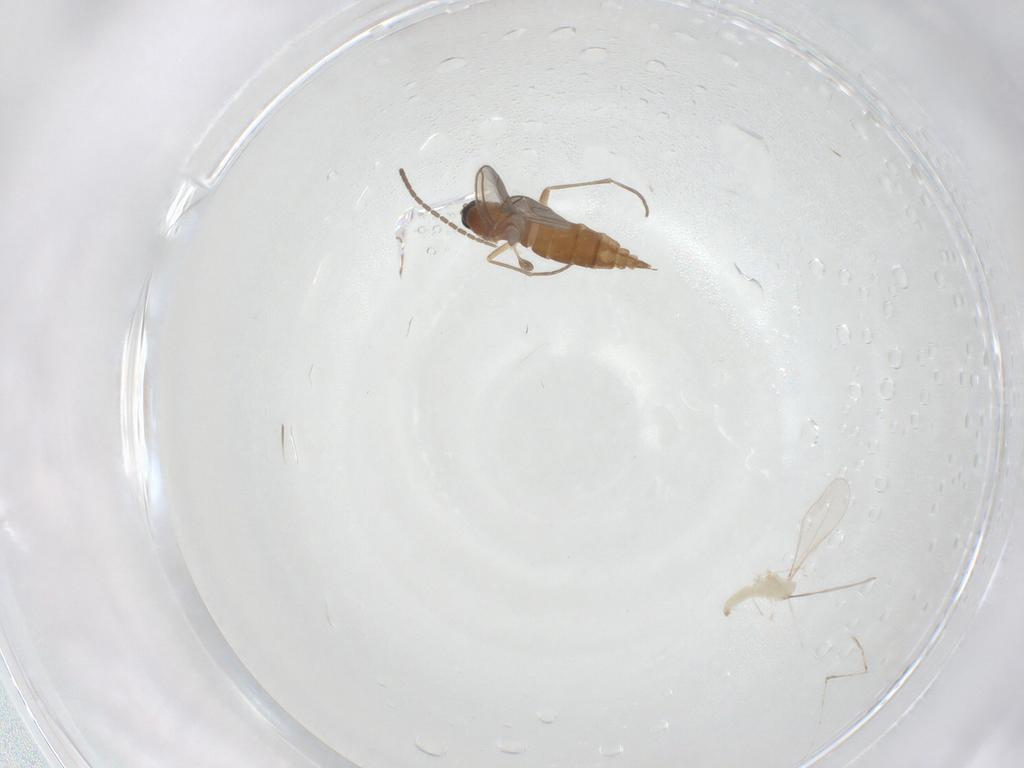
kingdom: Animalia
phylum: Arthropoda
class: Insecta
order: Diptera
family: Sciaridae
